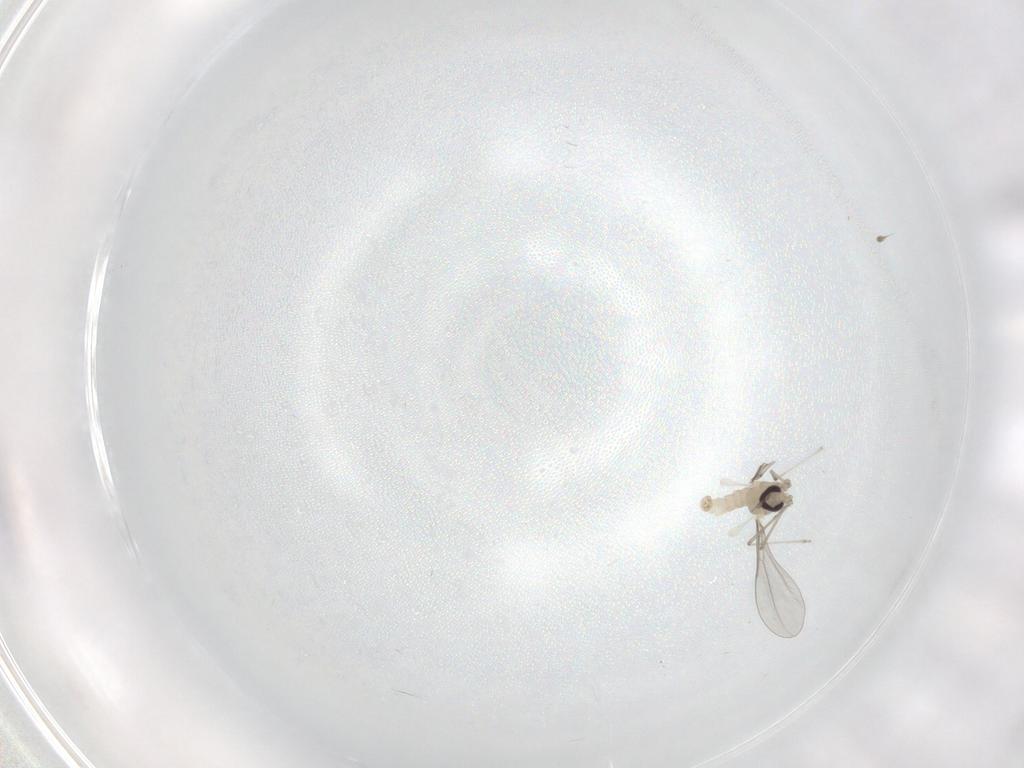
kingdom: Animalia
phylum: Arthropoda
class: Insecta
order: Diptera
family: Cecidomyiidae
